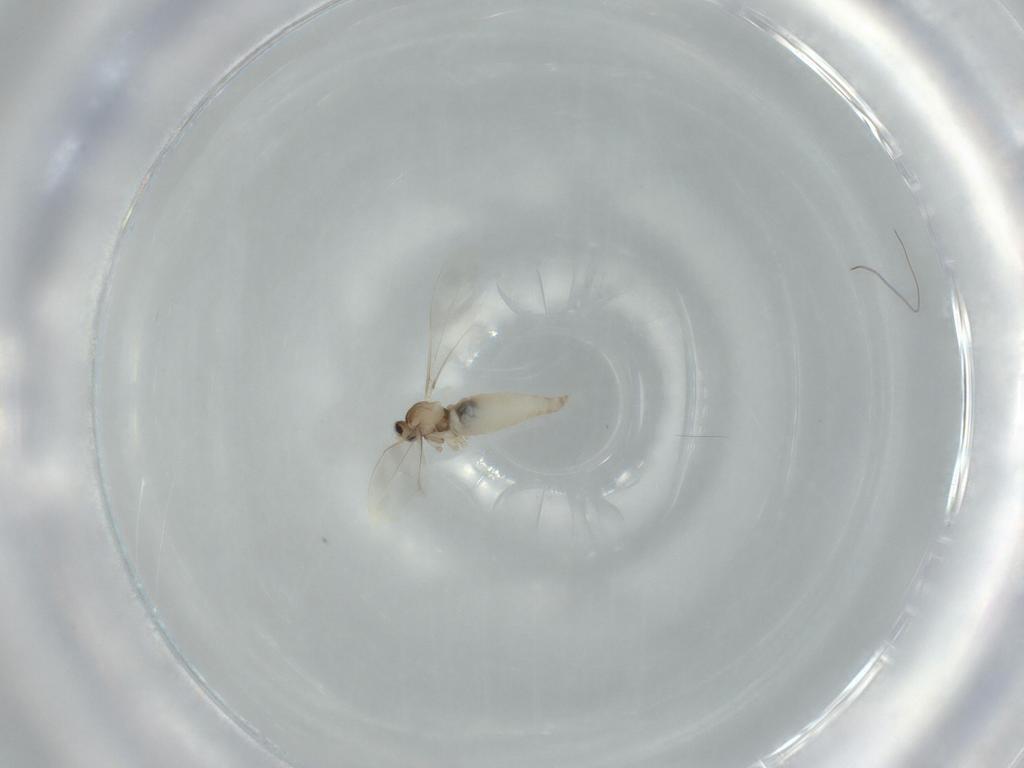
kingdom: Animalia
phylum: Arthropoda
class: Insecta
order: Diptera
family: Cecidomyiidae
